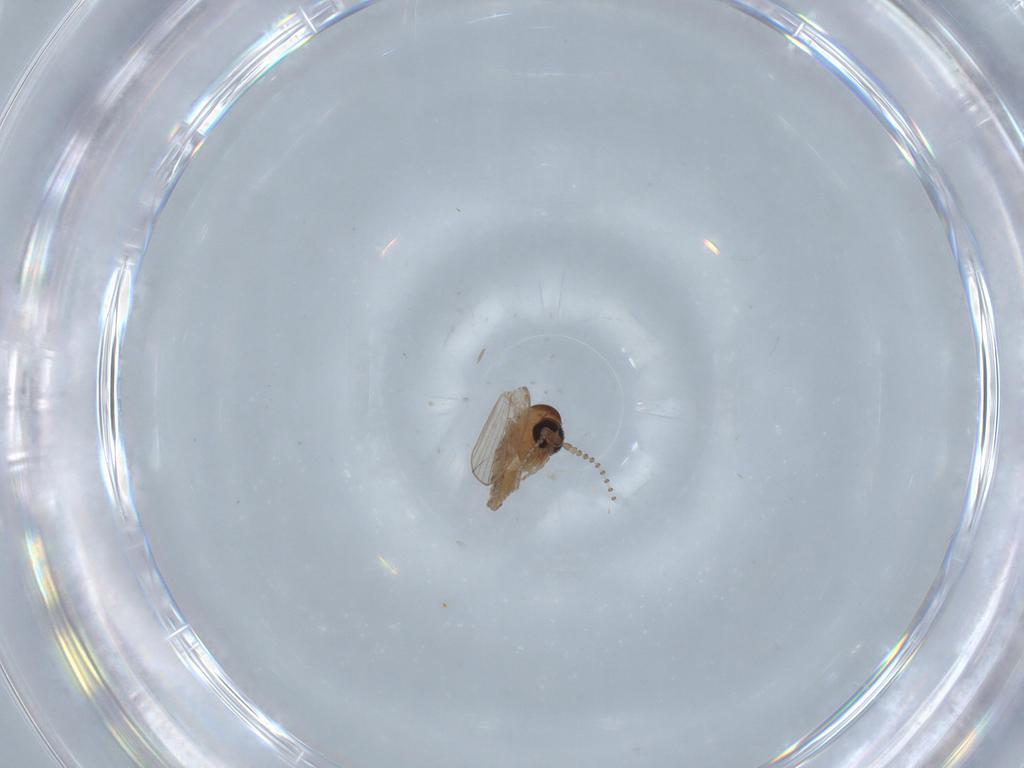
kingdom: Animalia
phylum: Arthropoda
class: Insecta
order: Diptera
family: Psychodidae
